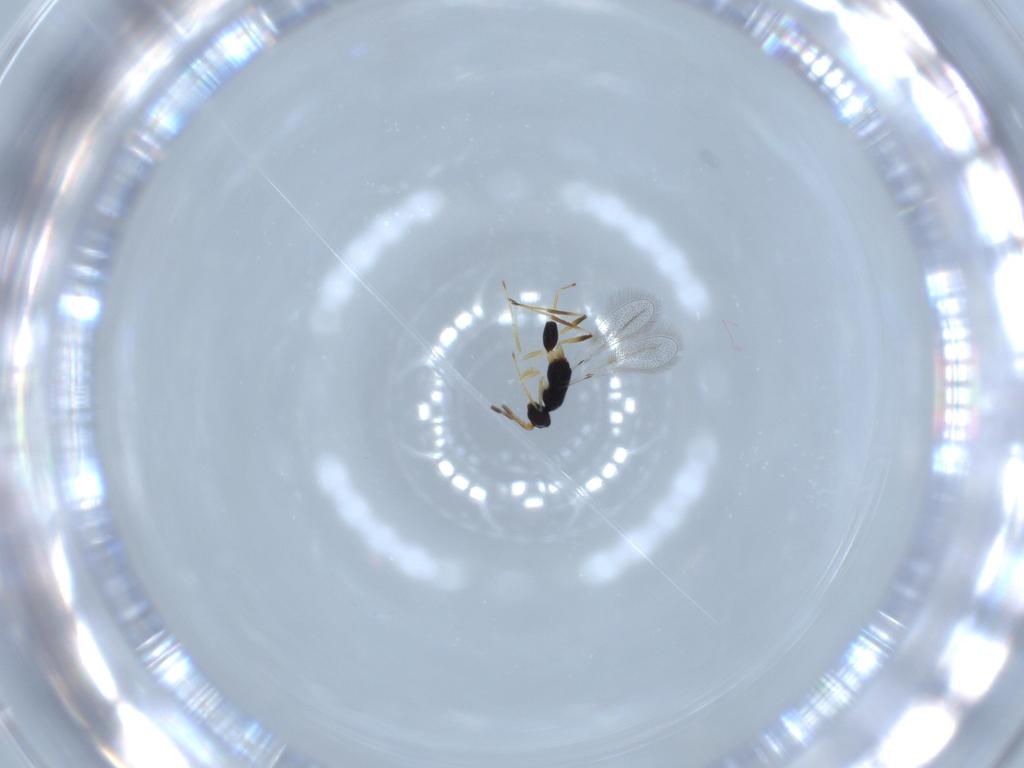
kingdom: Animalia
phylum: Arthropoda
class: Insecta
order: Hymenoptera
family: Mymaridae
